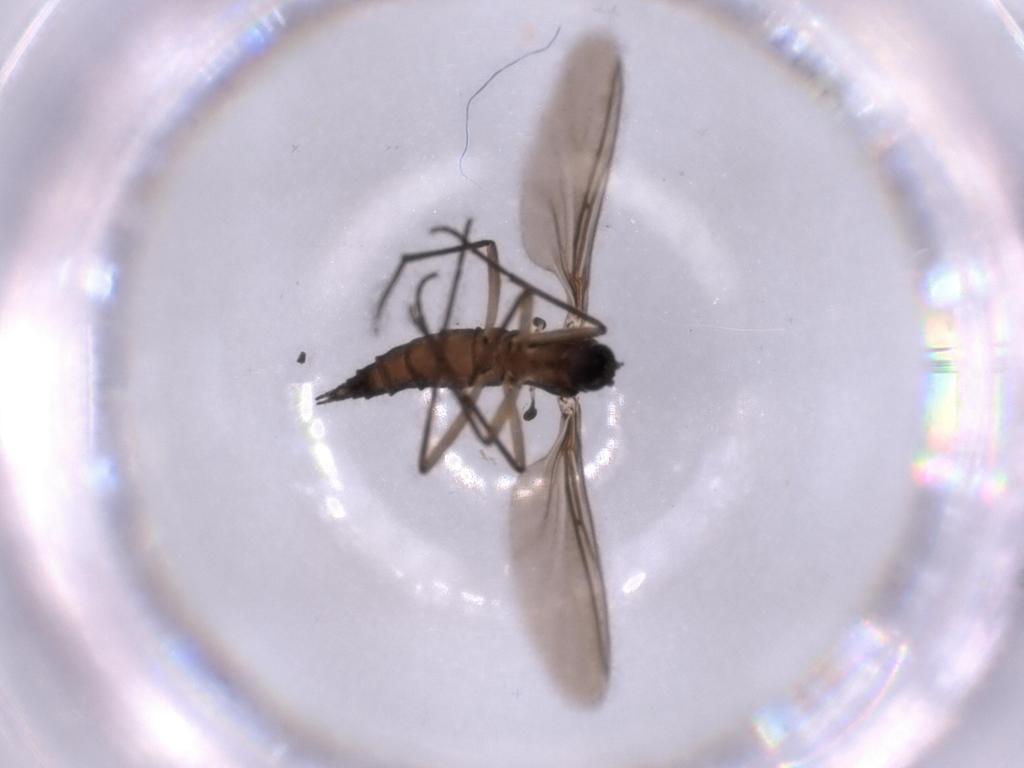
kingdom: Animalia
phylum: Arthropoda
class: Insecta
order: Diptera
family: Sciaridae
